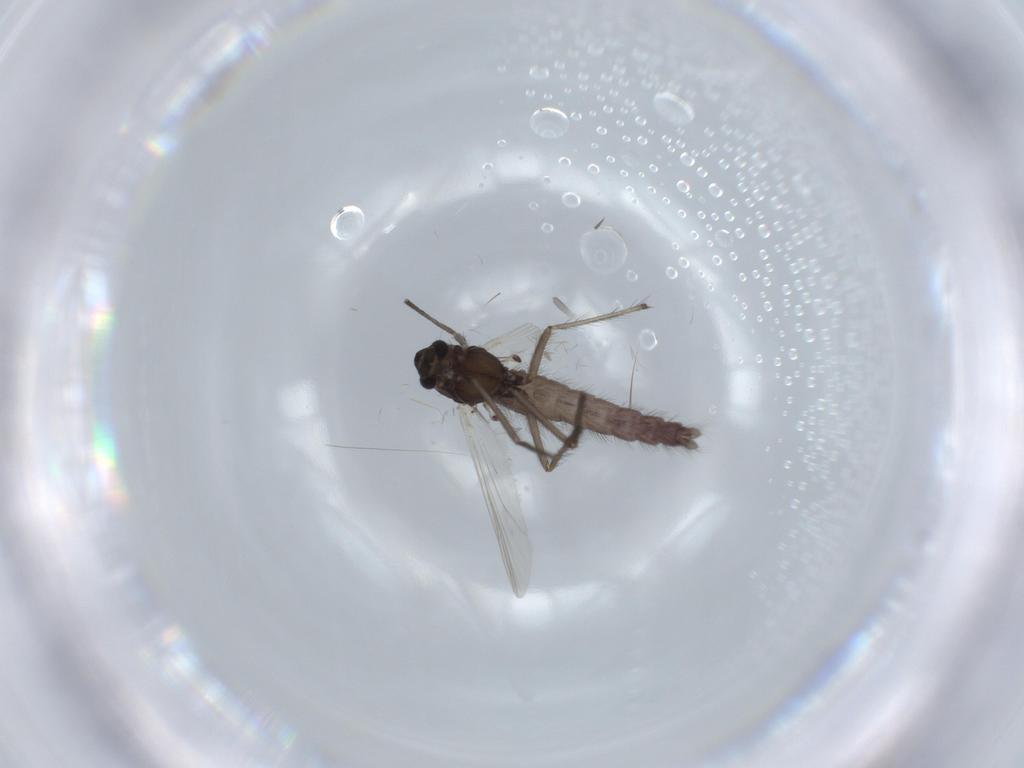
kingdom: Animalia
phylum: Arthropoda
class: Insecta
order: Diptera
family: Chironomidae
